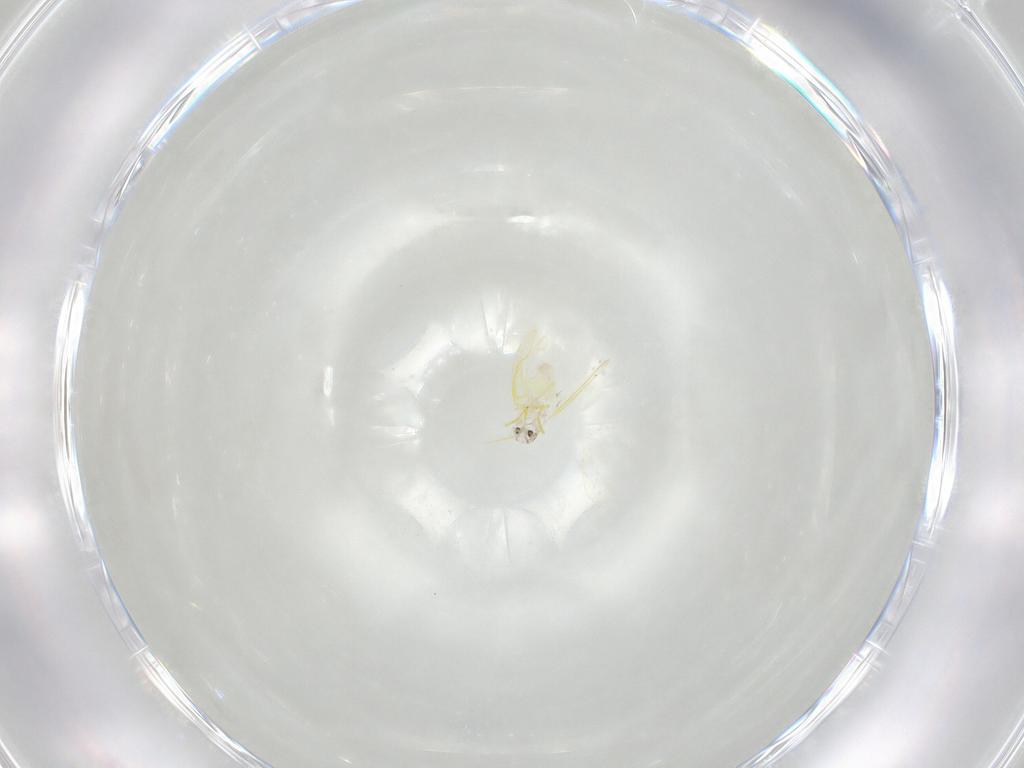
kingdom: Animalia
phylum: Arthropoda
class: Insecta
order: Hemiptera
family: Aleyrodidae
